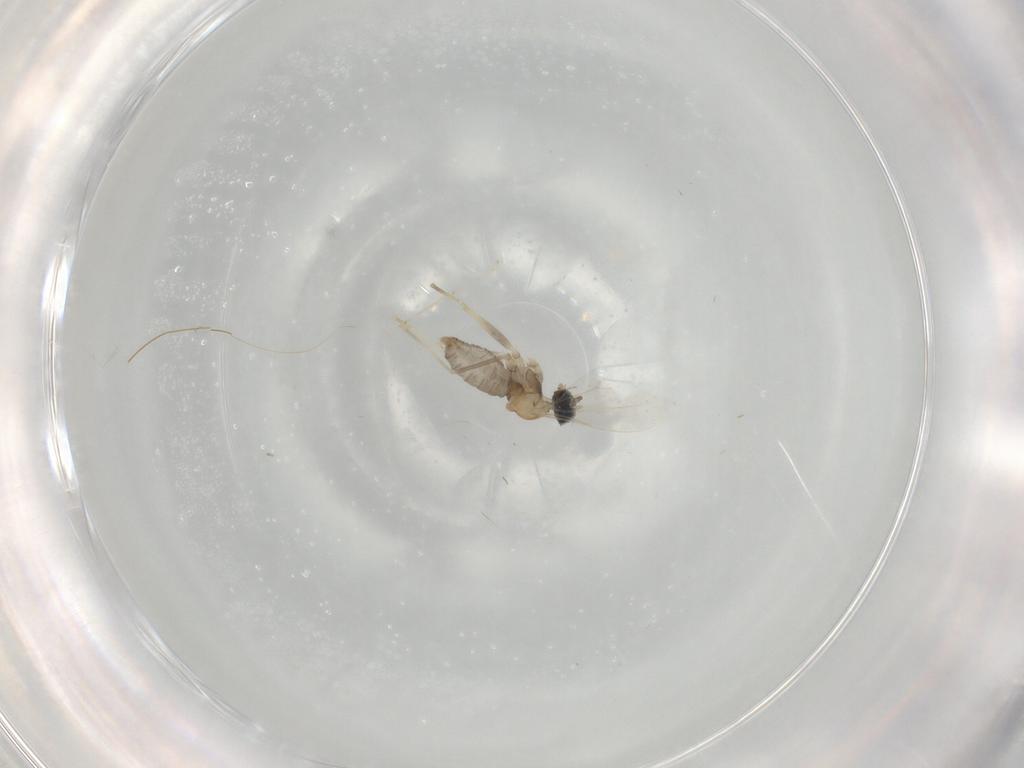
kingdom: Animalia
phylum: Arthropoda
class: Insecta
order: Diptera
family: Cecidomyiidae
